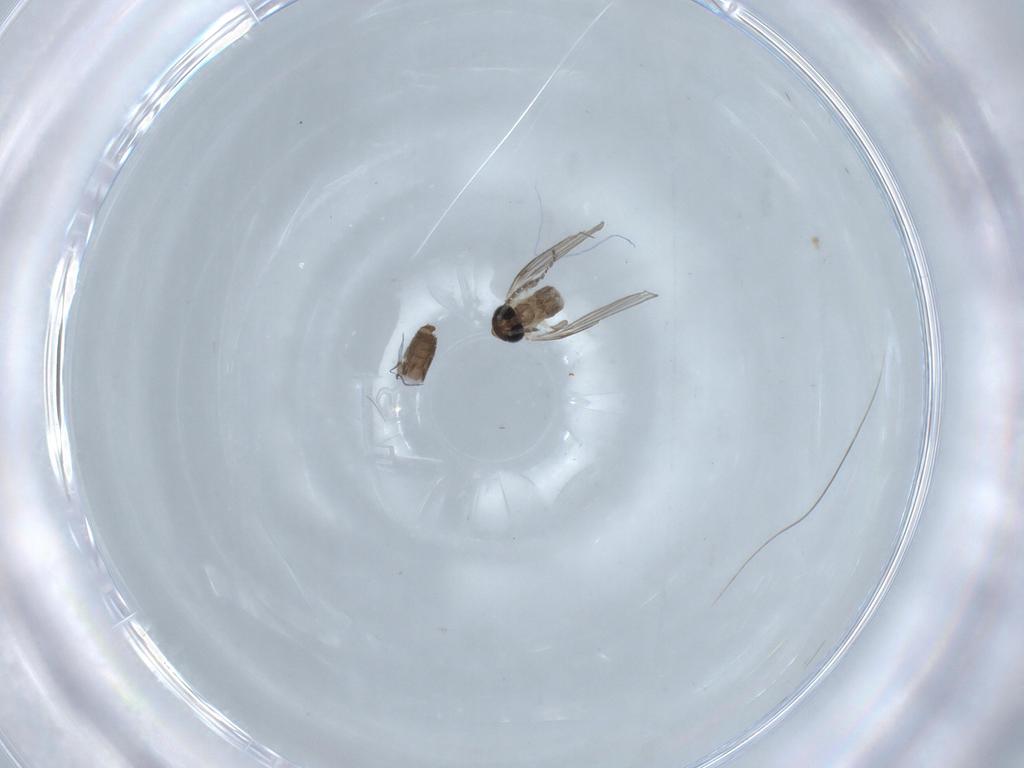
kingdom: Animalia
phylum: Arthropoda
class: Insecta
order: Diptera
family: Psychodidae
